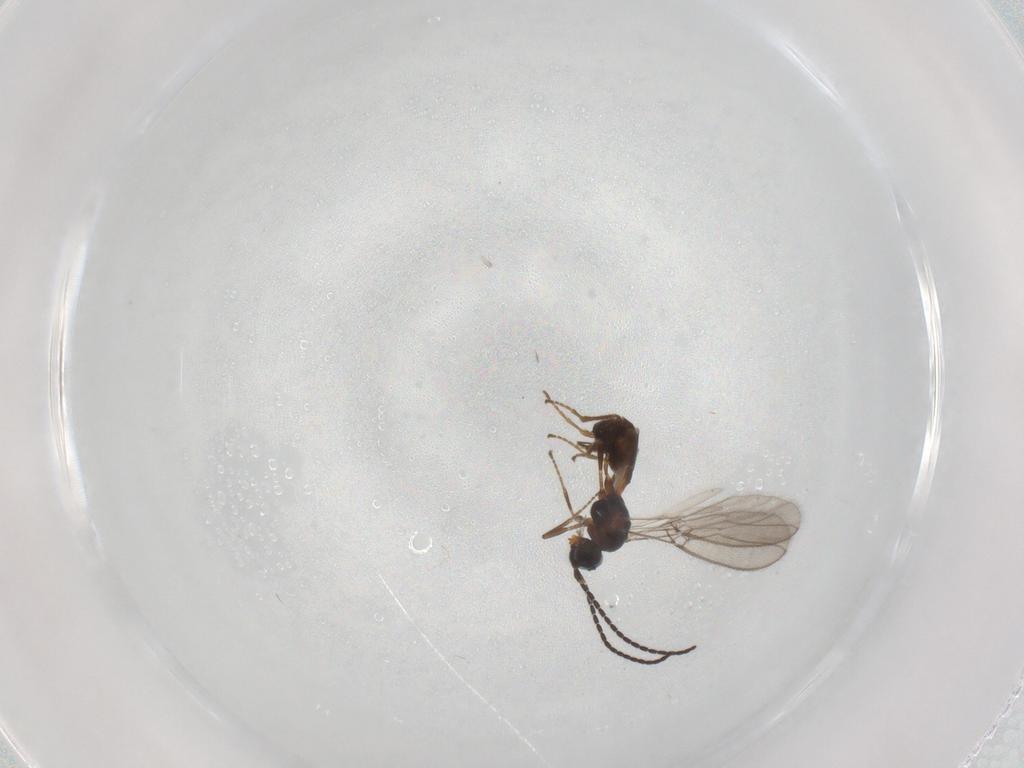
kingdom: Animalia
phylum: Arthropoda
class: Insecta
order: Hymenoptera
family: Braconidae
